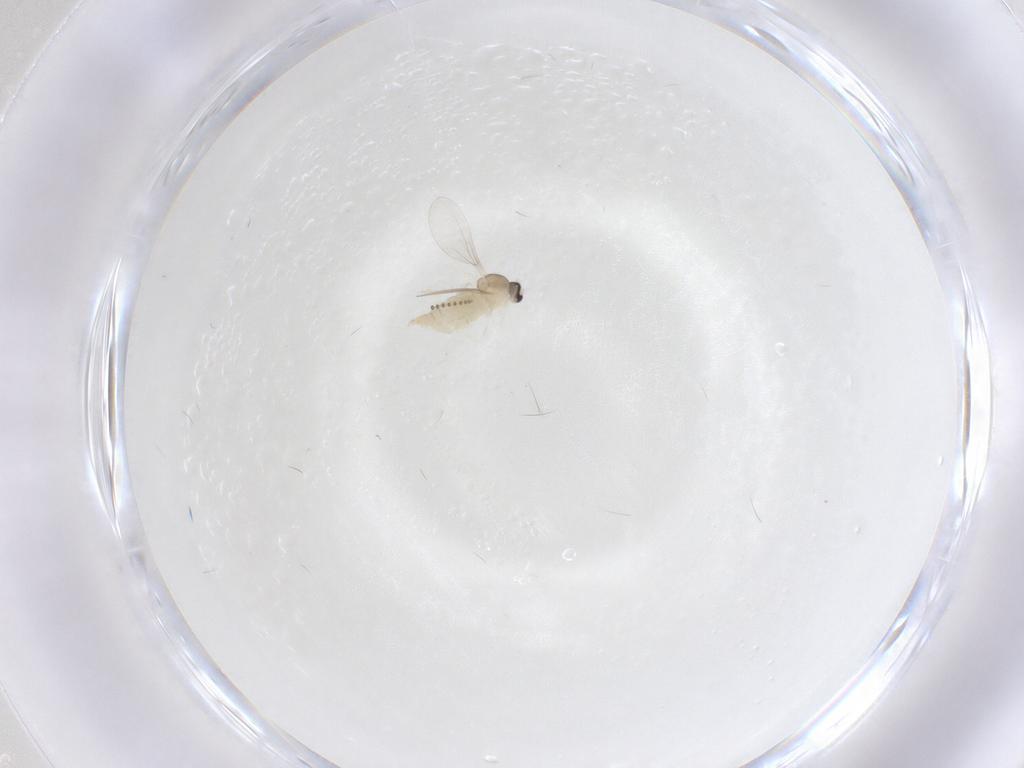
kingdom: Animalia
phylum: Arthropoda
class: Insecta
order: Diptera
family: Cecidomyiidae
